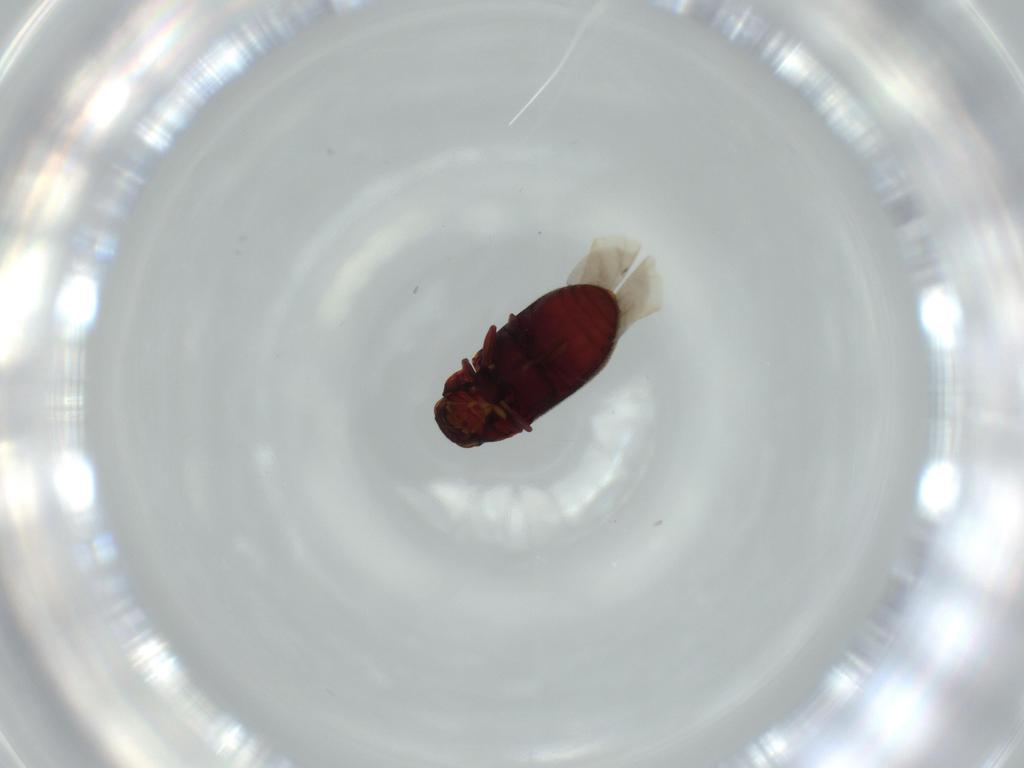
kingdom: Animalia
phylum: Arthropoda
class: Insecta
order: Coleoptera
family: Anobiidae
